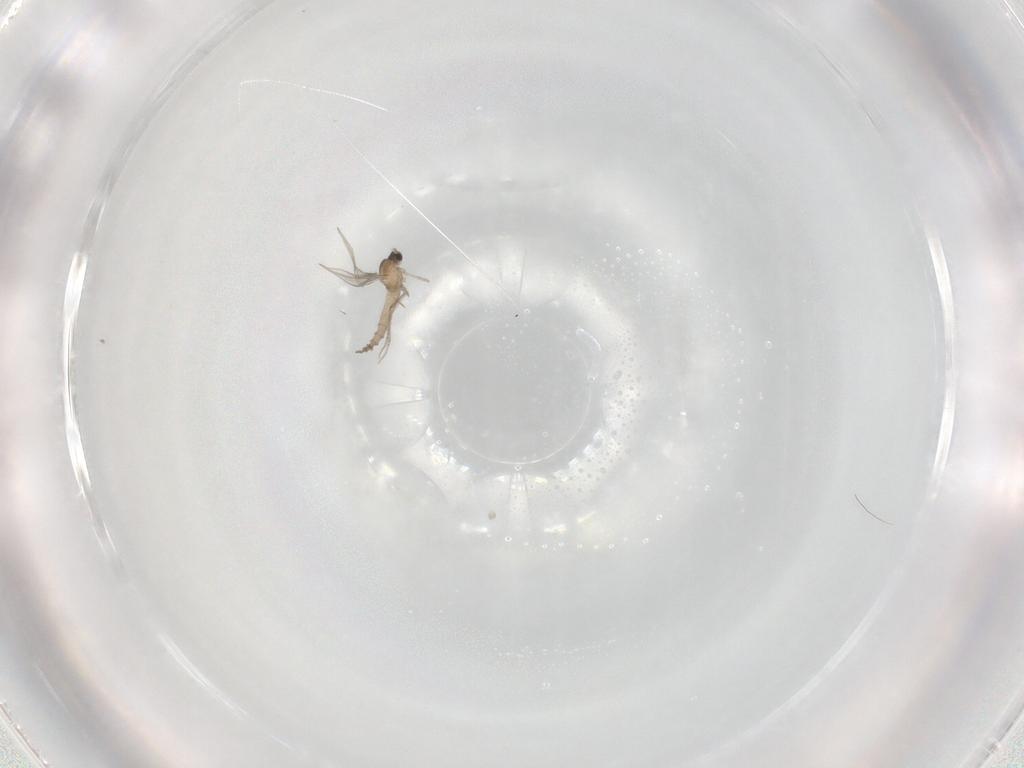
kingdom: Animalia
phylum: Arthropoda
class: Insecta
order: Diptera
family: Cecidomyiidae
